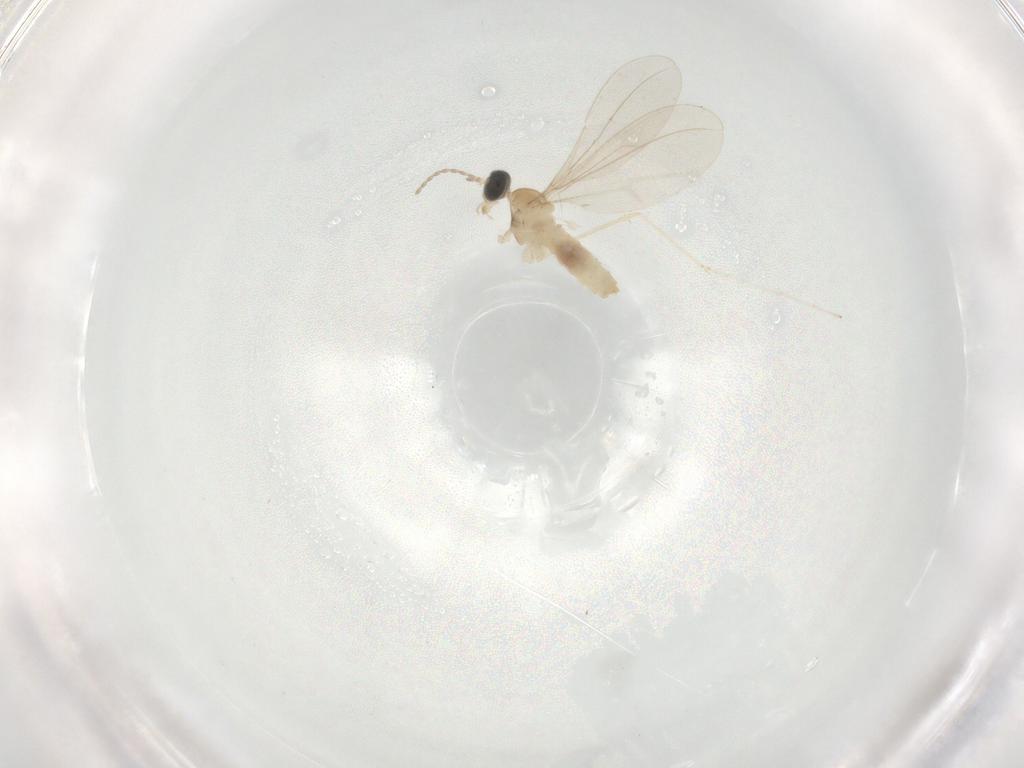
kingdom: Animalia
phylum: Arthropoda
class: Insecta
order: Diptera
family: Cecidomyiidae
